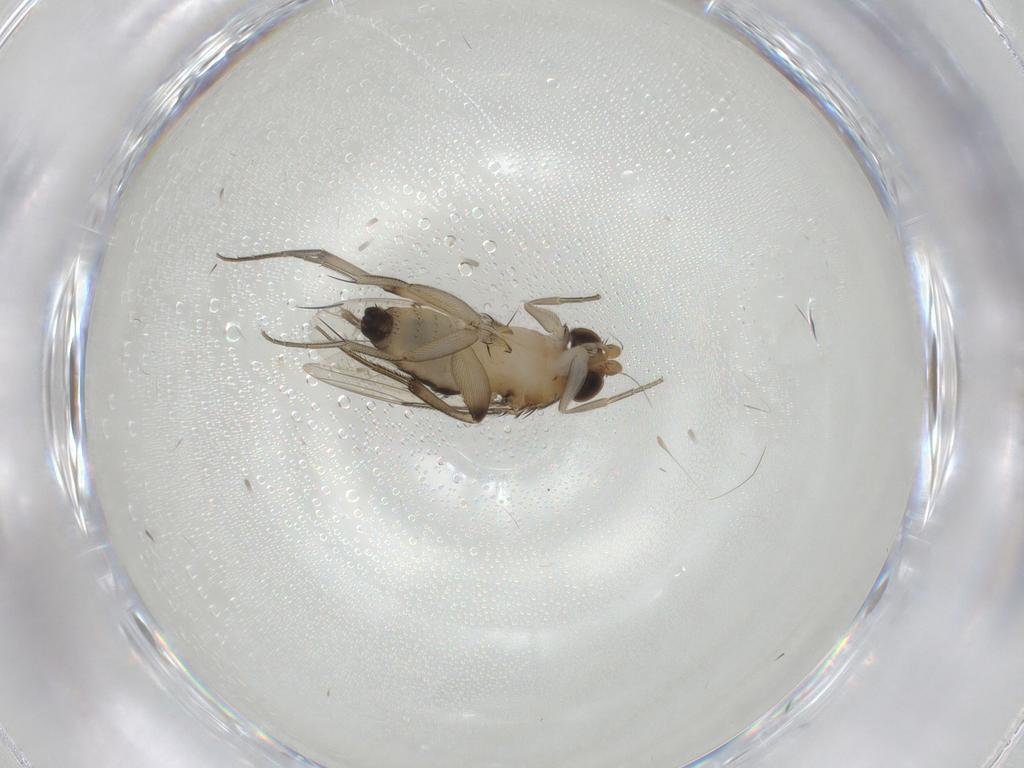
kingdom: Animalia
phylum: Arthropoda
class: Insecta
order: Diptera
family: Phoridae
